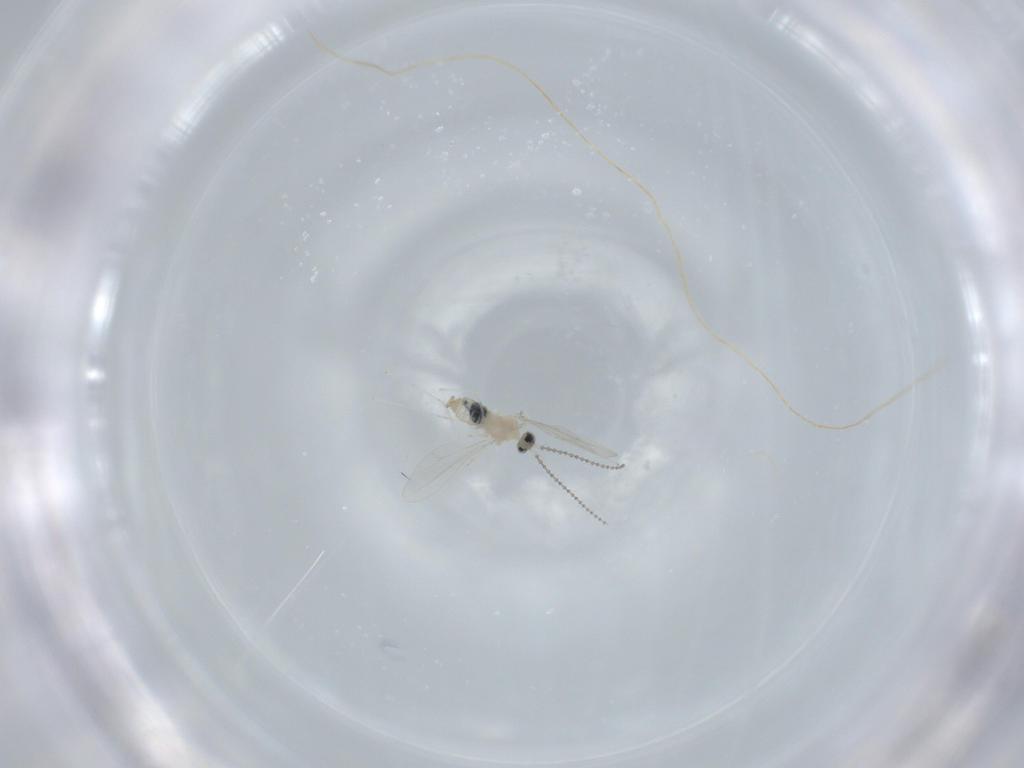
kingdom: Animalia
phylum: Arthropoda
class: Insecta
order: Diptera
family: Cecidomyiidae
